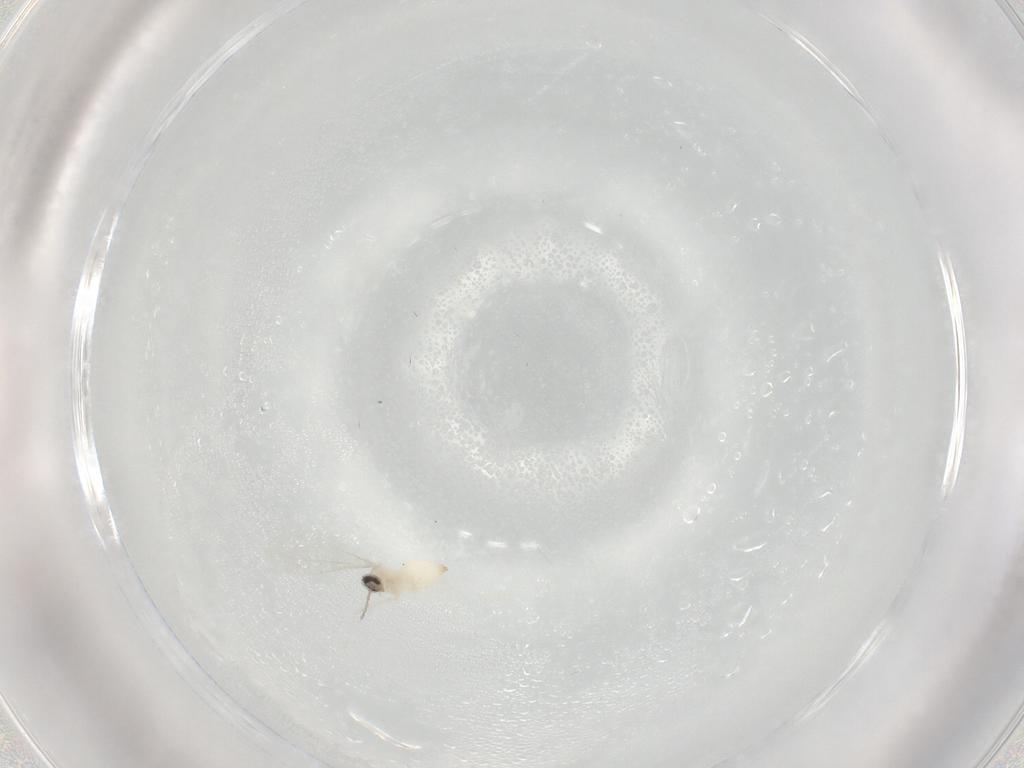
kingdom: Animalia
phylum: Arthropoda
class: Insecta
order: Diptera
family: Cecidomyiidae
